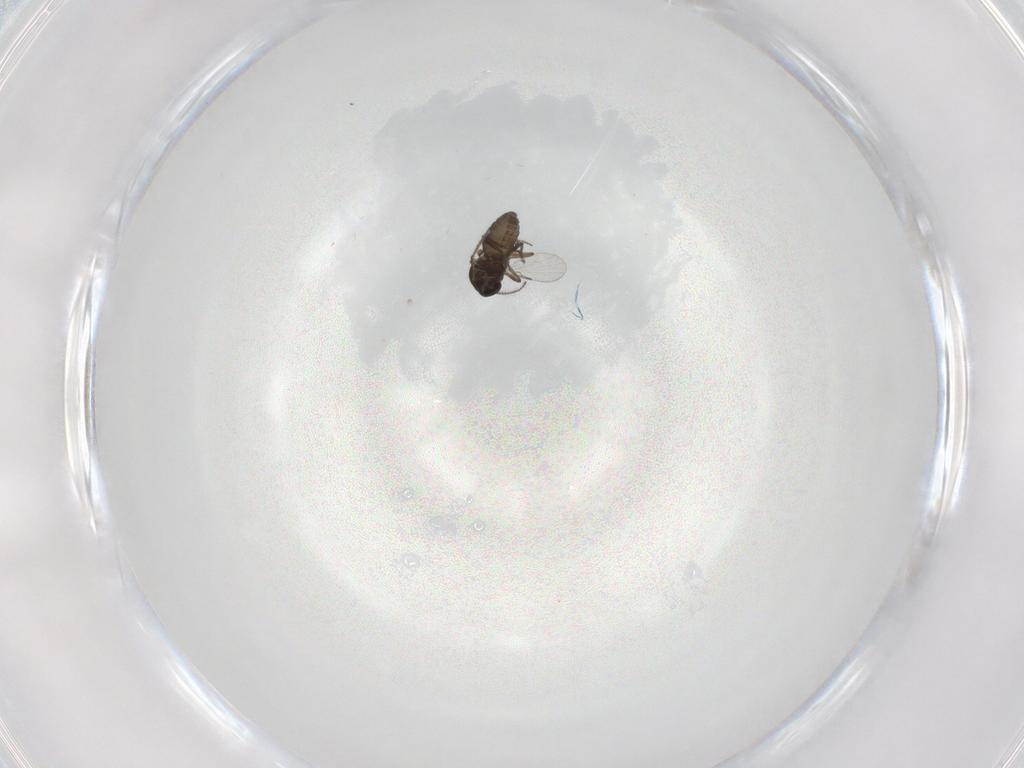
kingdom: Animalia
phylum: Arthropoda
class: Insecta
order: Diptera
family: Ceratopogonidae
